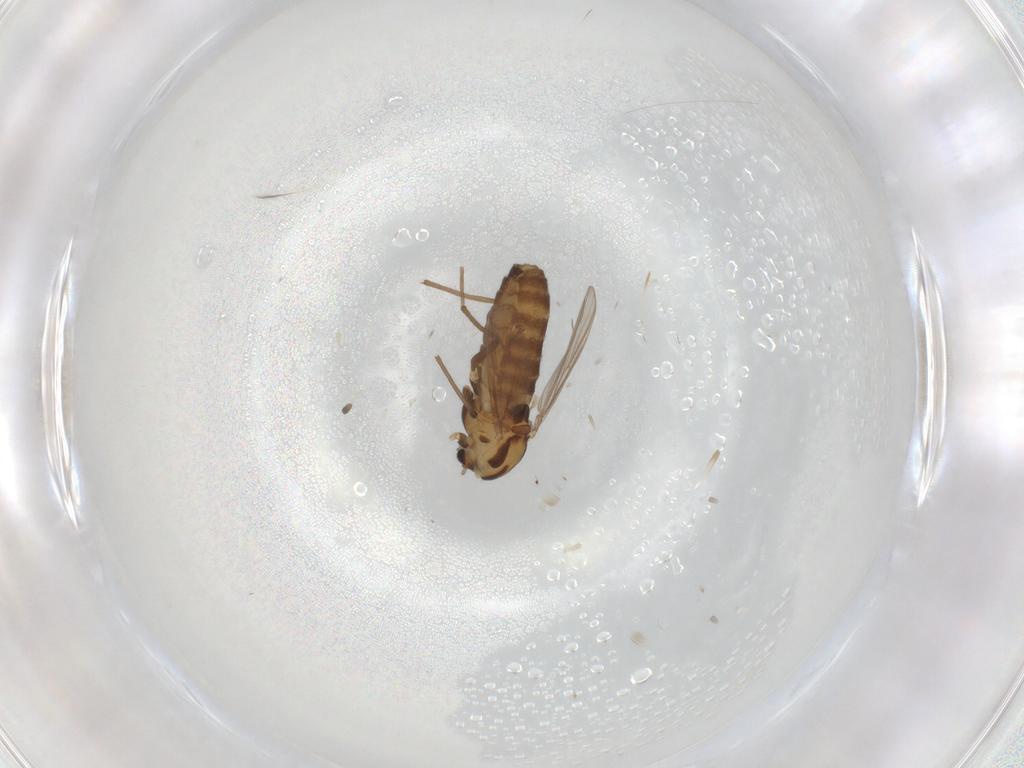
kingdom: Animalia
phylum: Arthropoda
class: Insecta
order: Diptera
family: Chironomidae
